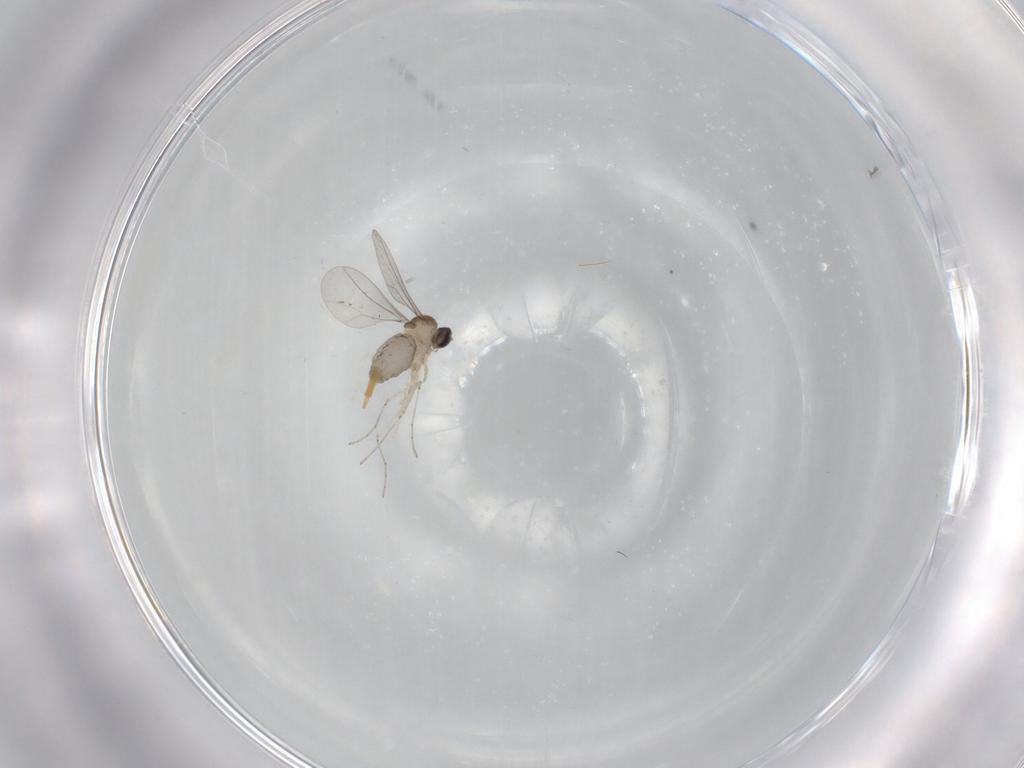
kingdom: Animalia
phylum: Arthropoda
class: Insecta
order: Diptera
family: Cecidomyiidae
